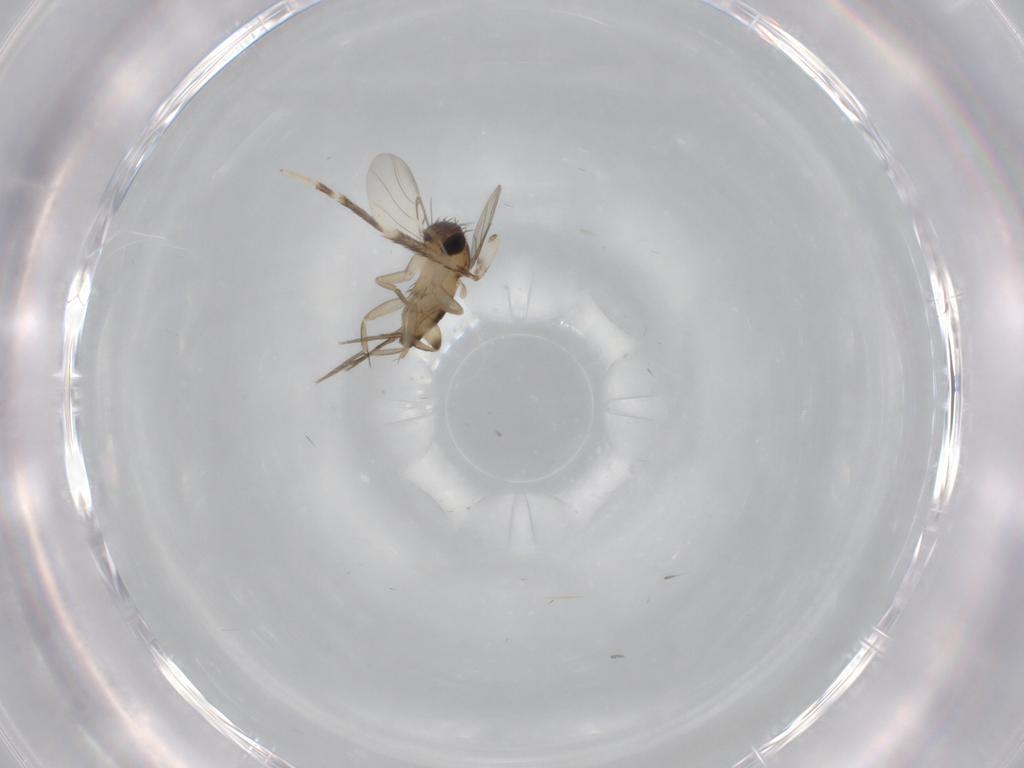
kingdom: Animalia
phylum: Arthropoda
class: Insecta
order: Diptera
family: Phoridae
